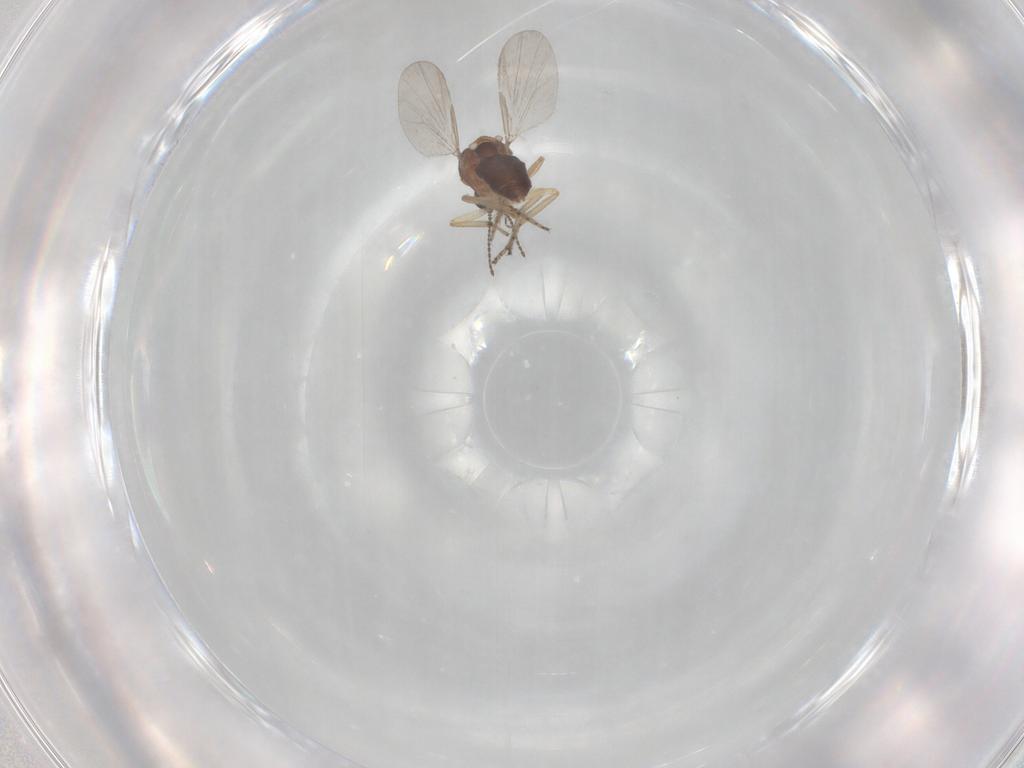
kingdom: Animalia
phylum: Arthropoda
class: Insecta
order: Diptera
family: Ceratopogonidae
